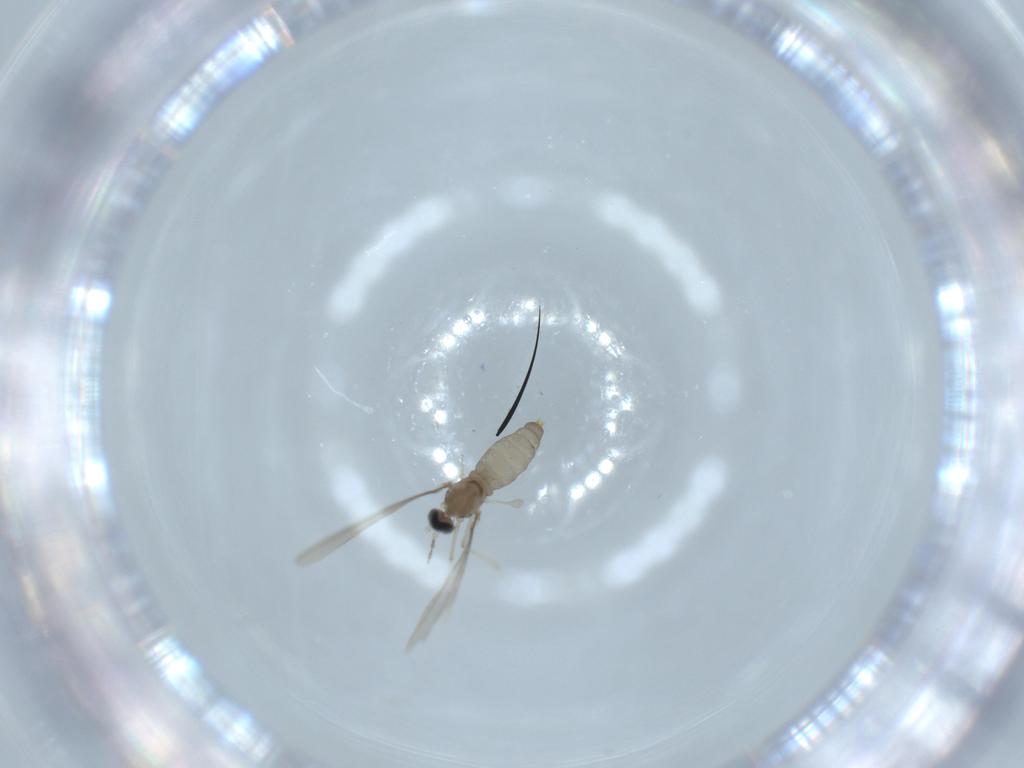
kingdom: Animalia
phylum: Arthropoda
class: Insecta
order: Diptera
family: Cecidomyiidae
